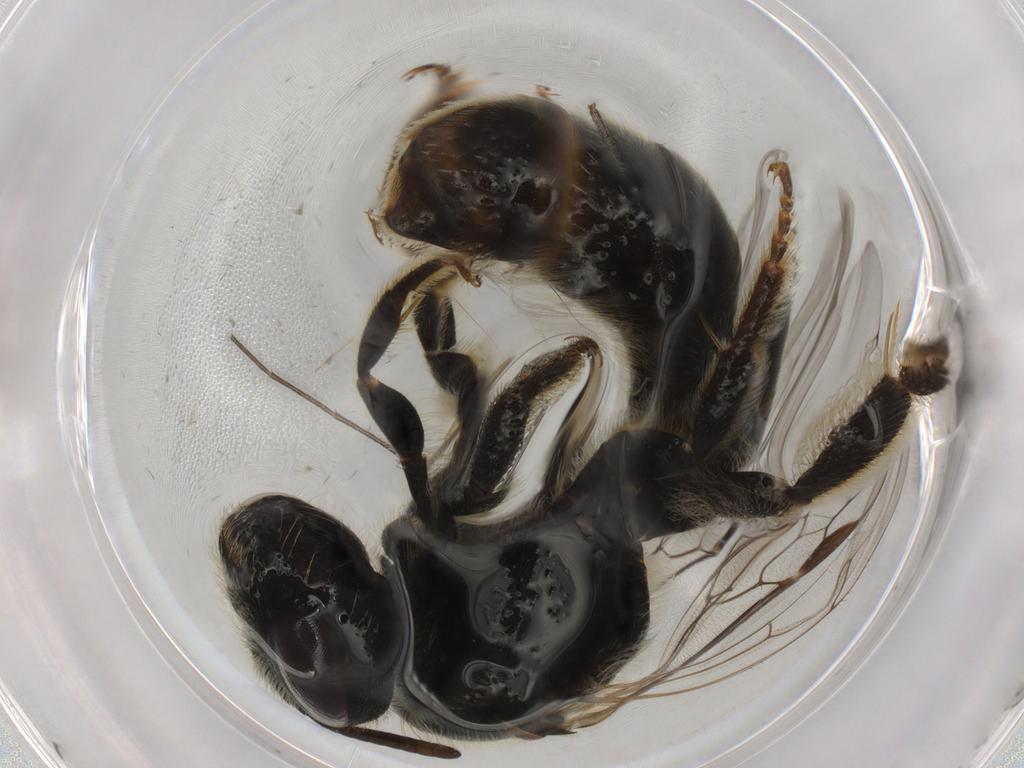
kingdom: Animalia
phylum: Arthropoda
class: Insecta
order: Hymenoptera
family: Halictidae
